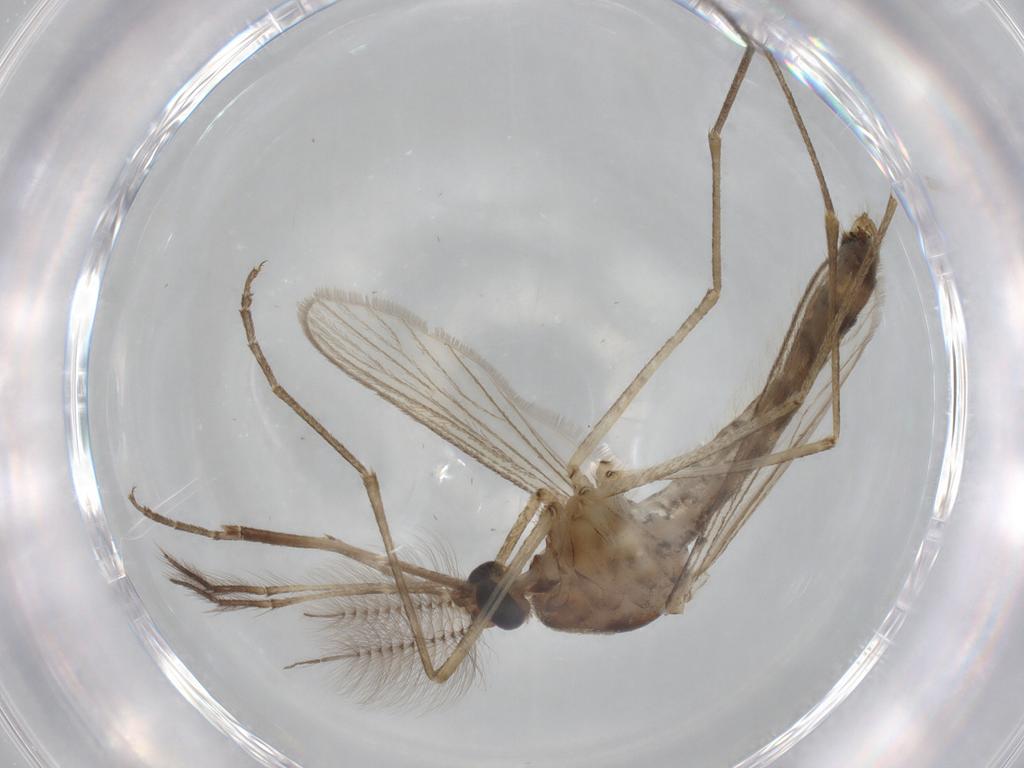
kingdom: Animalia
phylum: Arthropoda
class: Insecta
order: Diptera
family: Psychodidae
